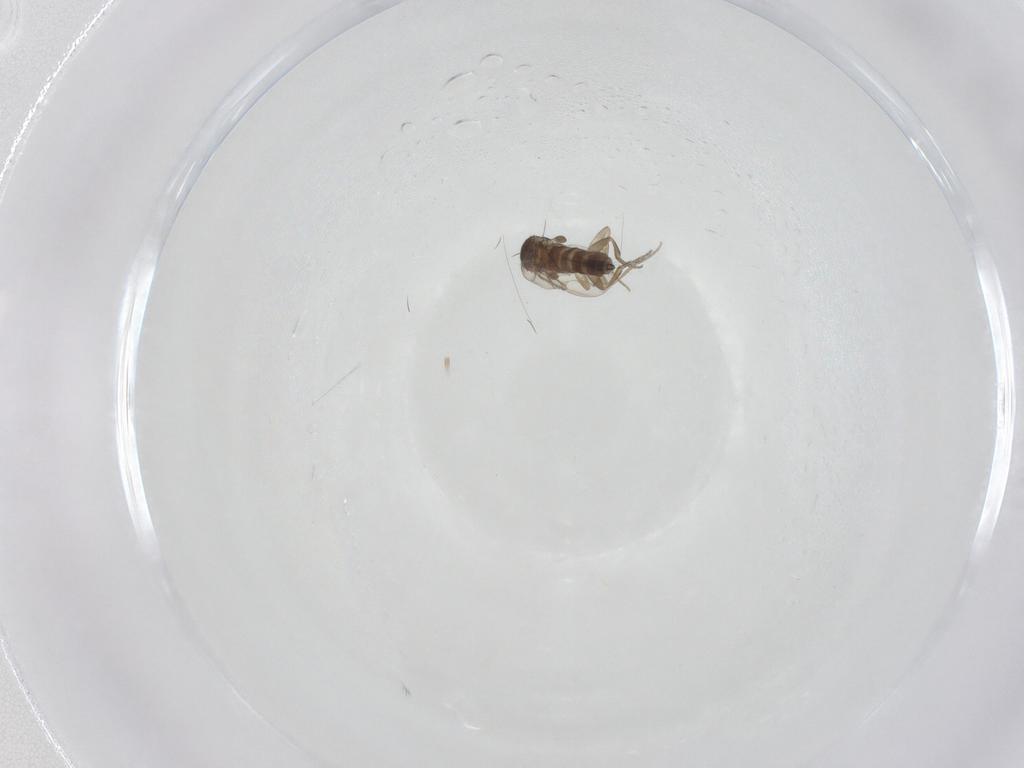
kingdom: Animalia
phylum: Arthropoda
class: Insecta
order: Diptera
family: Phoridae
